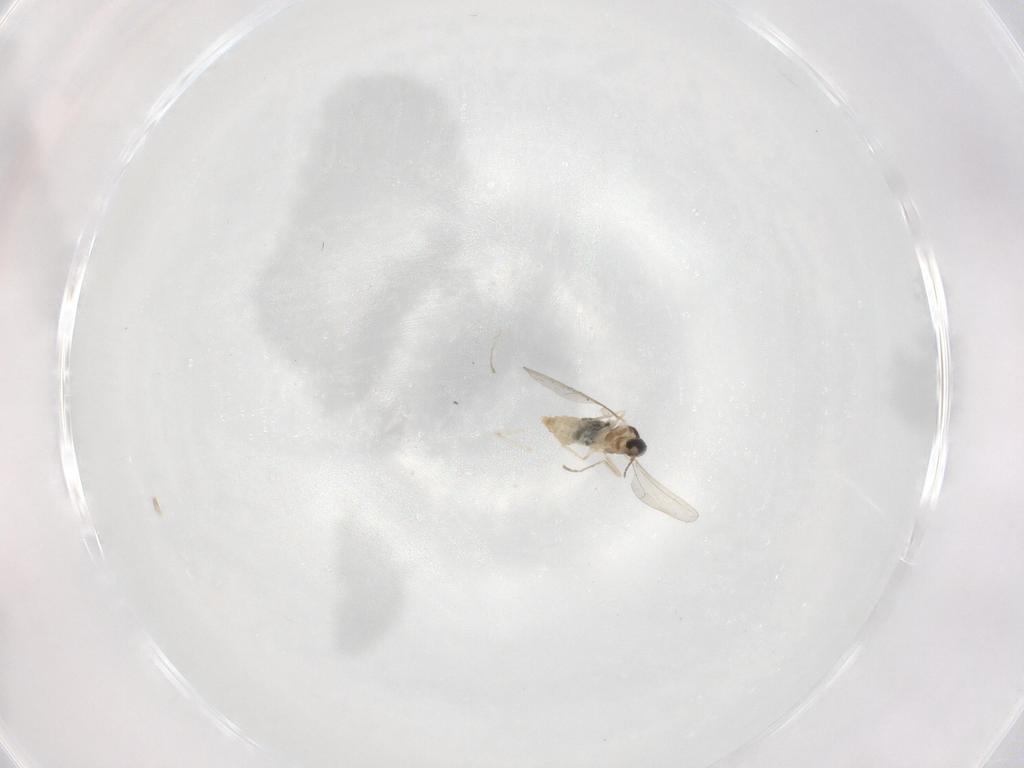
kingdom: Animalia
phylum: Arthropoda
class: Insecta
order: Diptera
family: Cecidomyiidae
